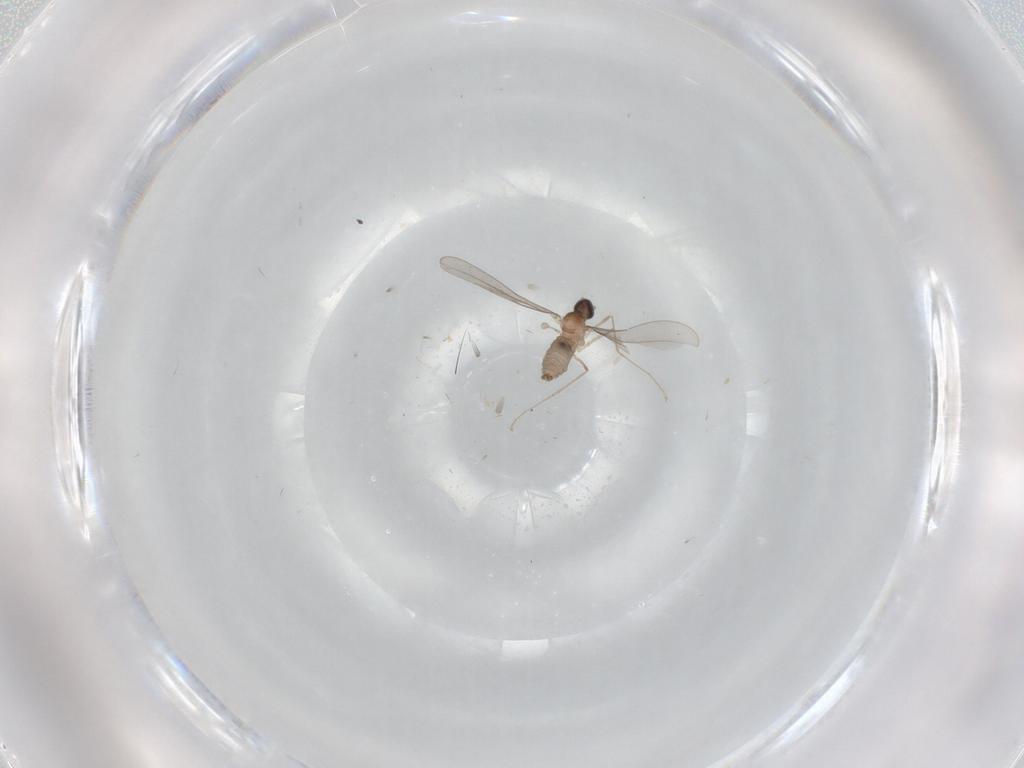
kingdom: Animalia
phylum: Arthropoda
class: Insecta
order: Diptera
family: Cecidomyiidae
